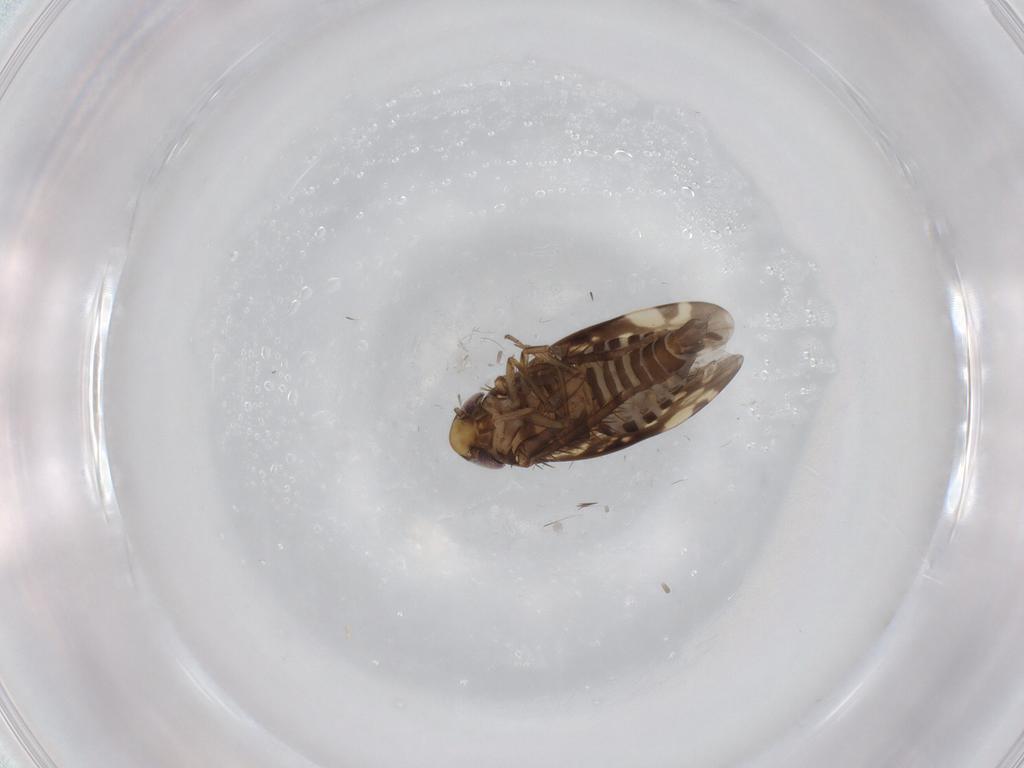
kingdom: Animalia
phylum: Arthropoda
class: Insecta
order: Hemiptera
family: Cicadellidae
